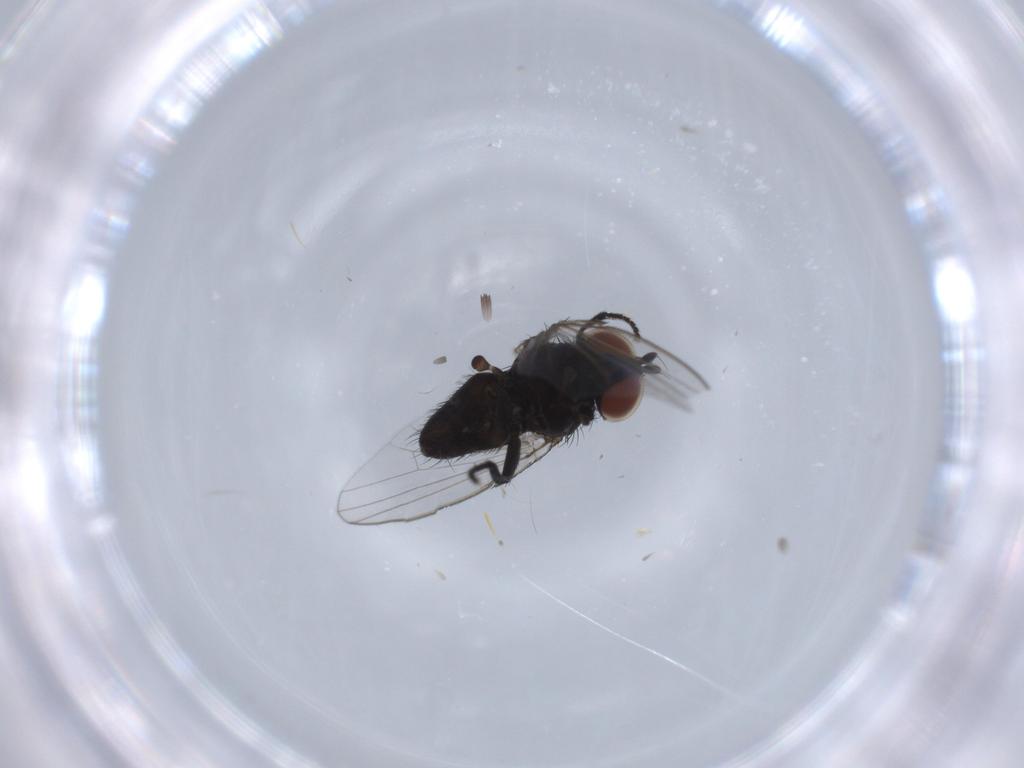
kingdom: Animalia
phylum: Arthropoda
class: Insecta
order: Diptera
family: Milichiidae
